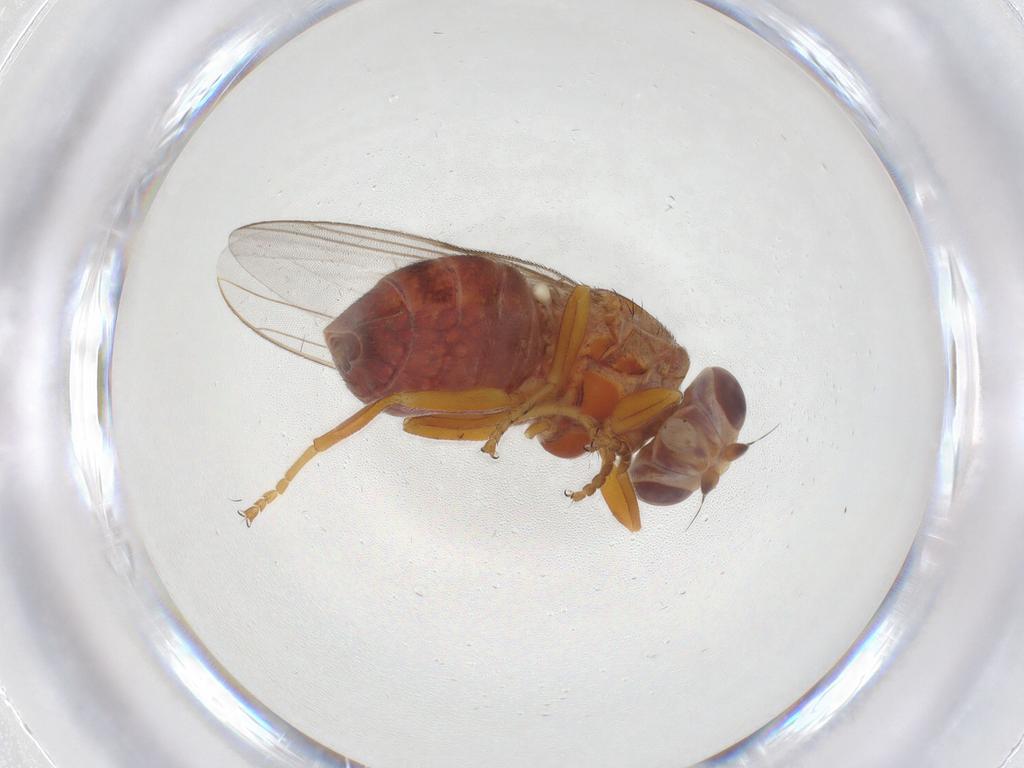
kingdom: Animalia
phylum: Arthropoda
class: Insecta
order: Diptera
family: Chloropidae
